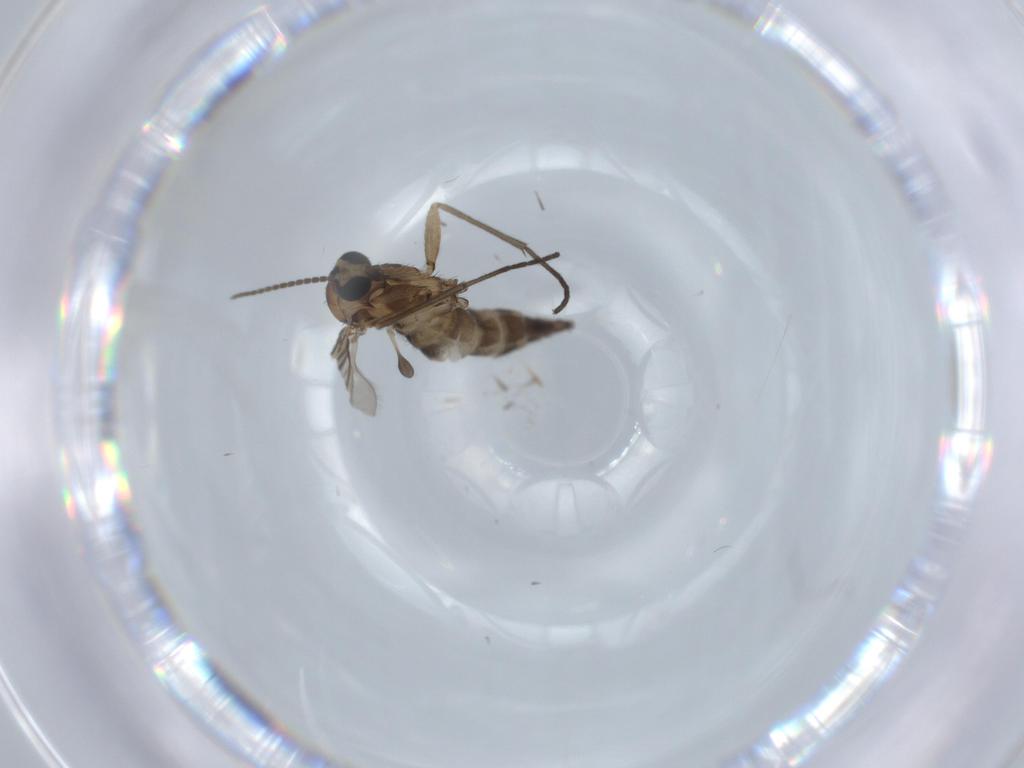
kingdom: Animalia
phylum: Arthropoda
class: Insecta
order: Diptera
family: Sciaridae
